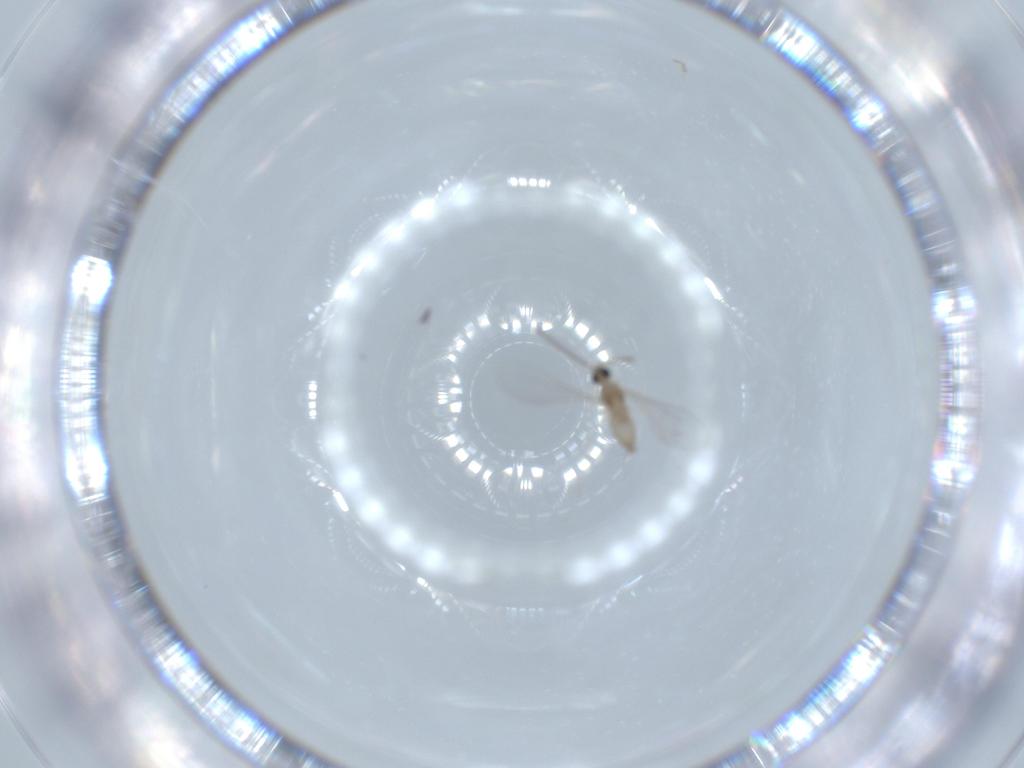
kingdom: Animalia
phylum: Arthropoda
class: Insecta
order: Diptera
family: Cecidomyiidae
